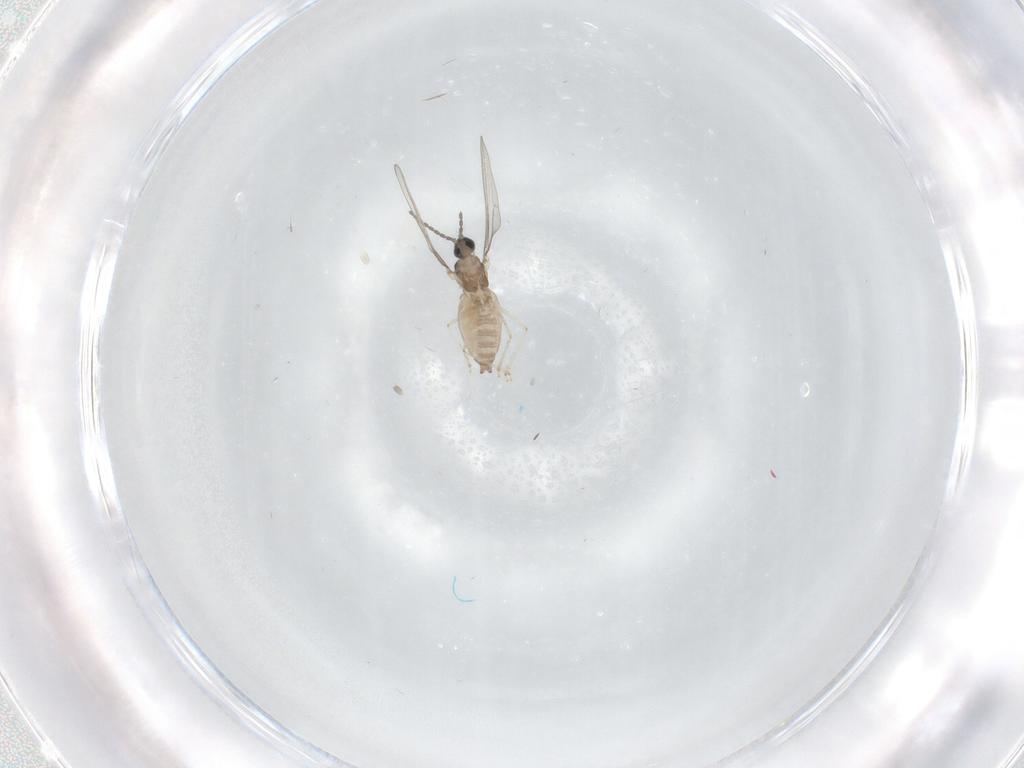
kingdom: Animalia
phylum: Arthropoda
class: Insecta
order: Diptera
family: Cecidomyiidae
